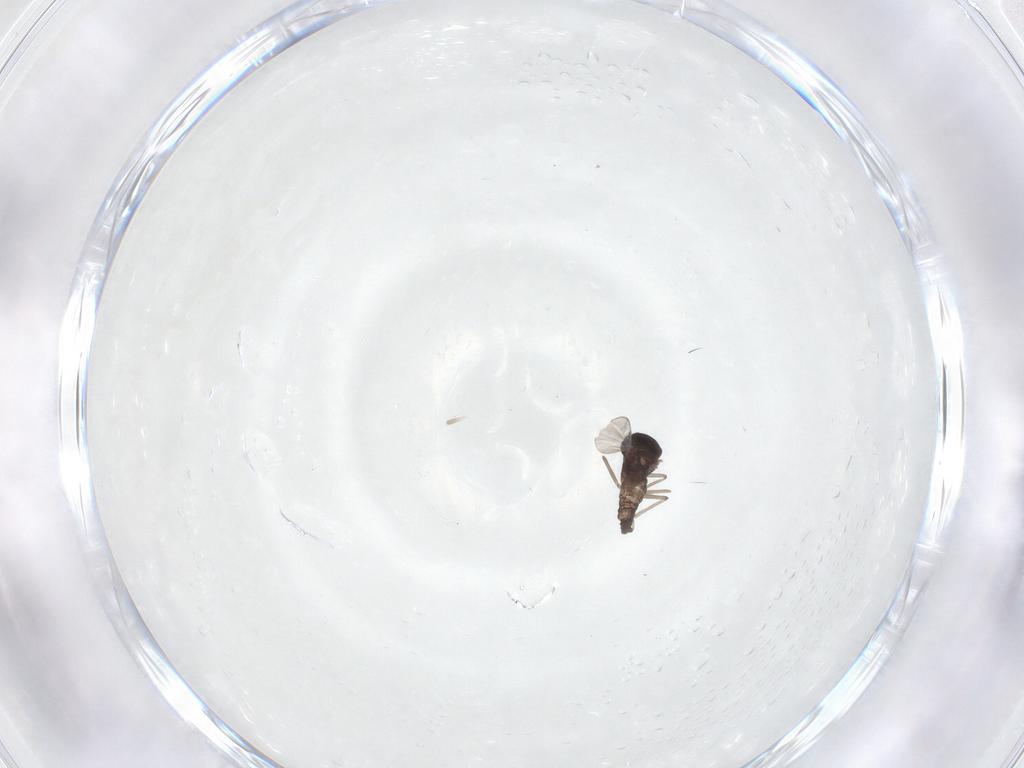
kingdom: Animalia
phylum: Arthropoda
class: Insecta
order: Diptera
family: Ceratopogonidae
